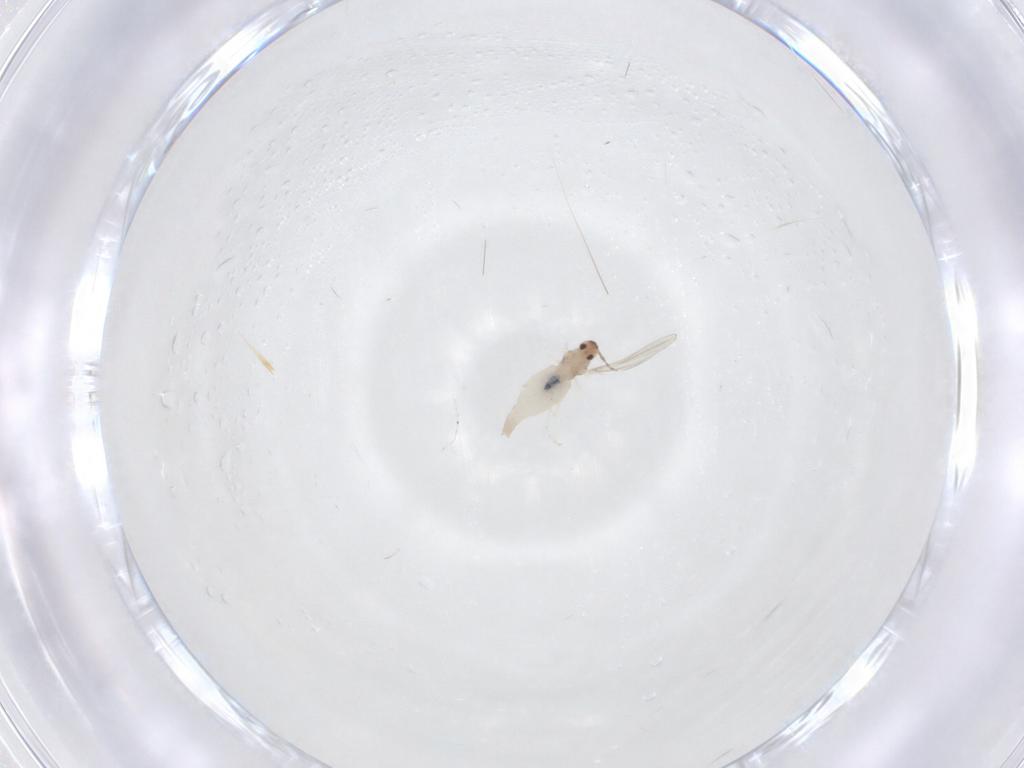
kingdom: Animalia
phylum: Arthropoda
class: Insecta
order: Diptera
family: Cecidomyiidae
